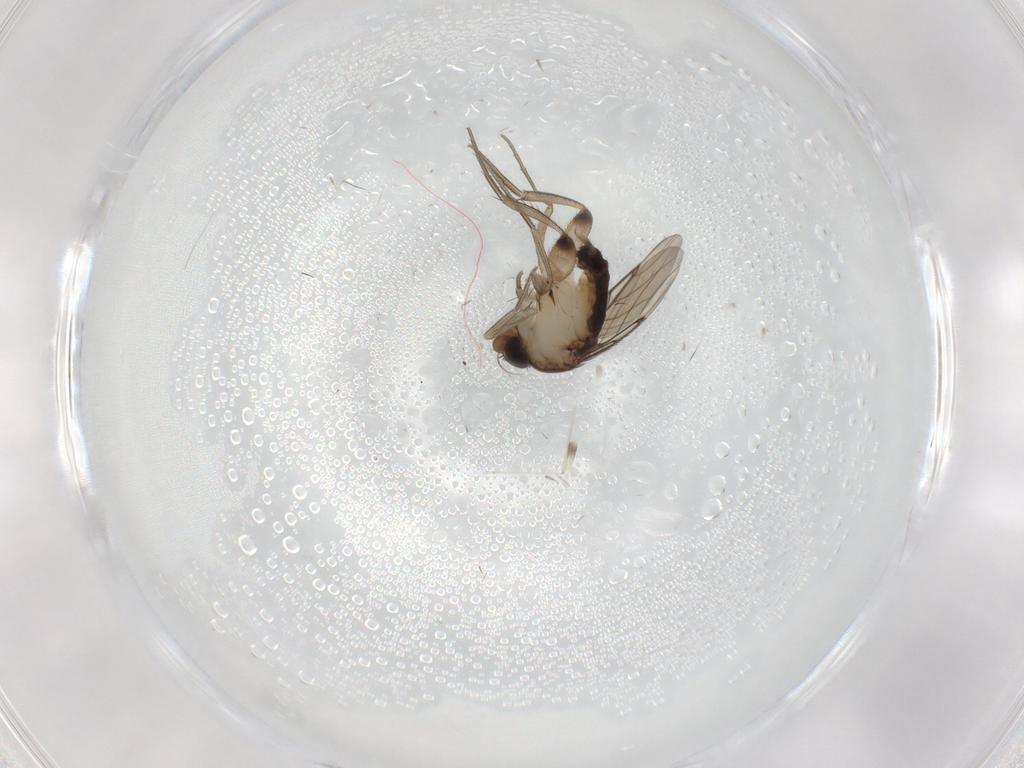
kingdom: Animalia
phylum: Arthropoda
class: Insecta
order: Diptera
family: Phoridae
